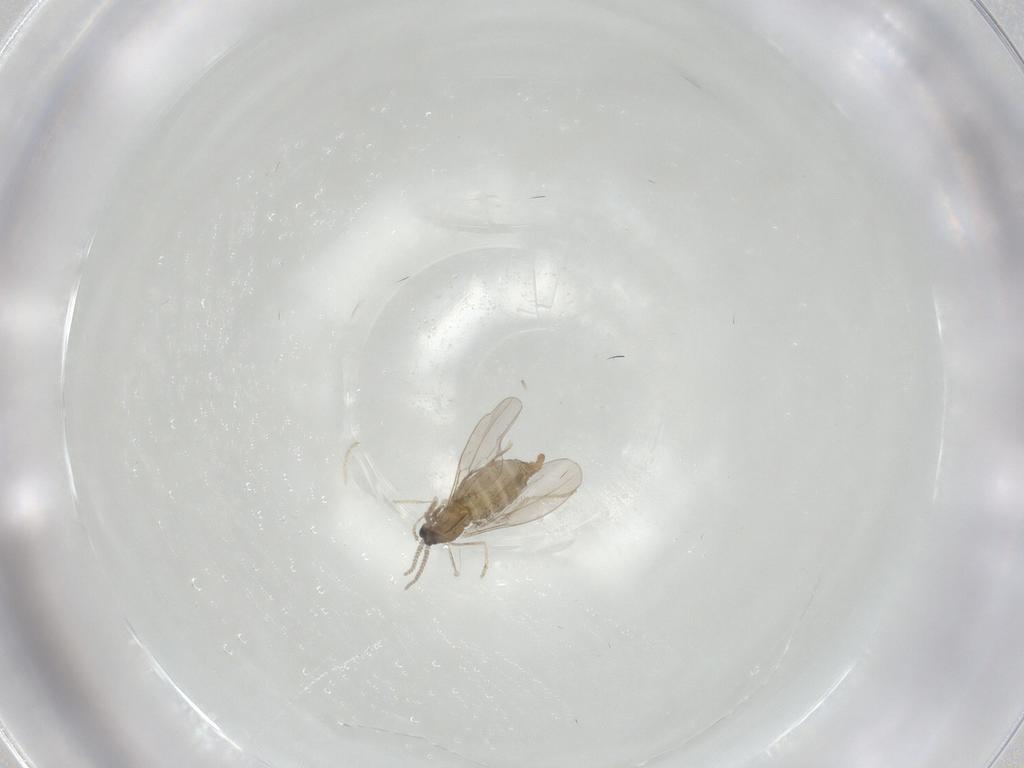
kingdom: Animalia
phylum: Arthropoda
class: Insecta
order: Diptera
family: Cecidomyiidae
